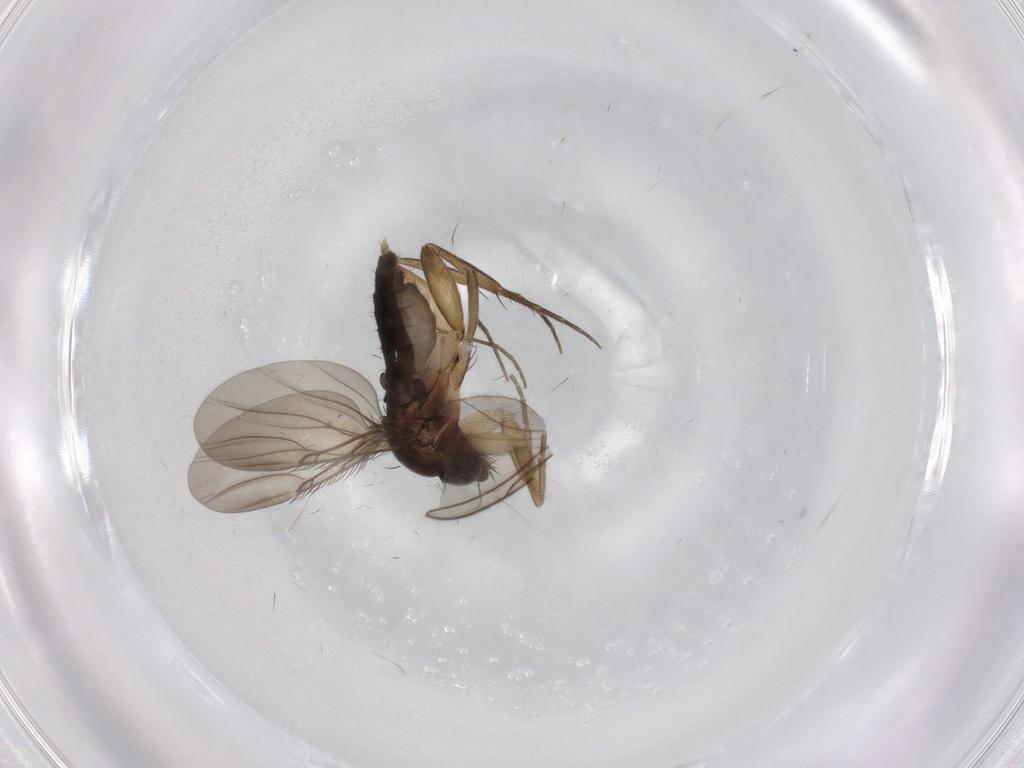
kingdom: Animalia
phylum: Arthropoda
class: Insecta
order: Diptera
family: Phoridae
